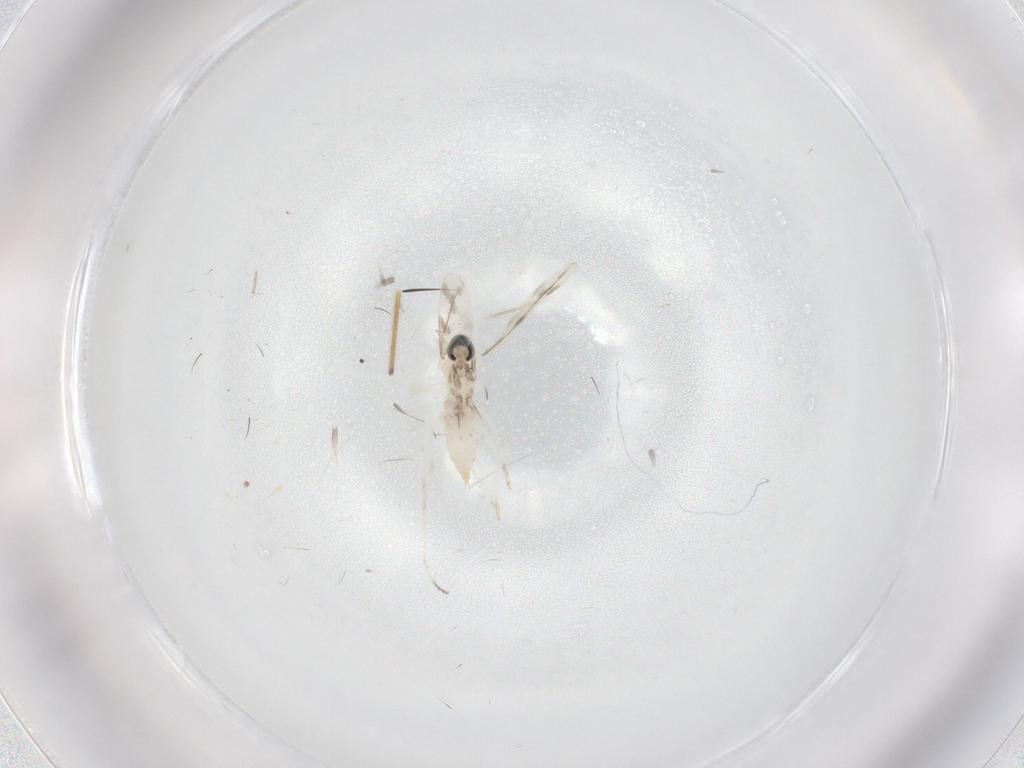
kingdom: Animalia
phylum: Arthropoda
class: Insecta
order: Diptera
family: Cecidomyiidae
